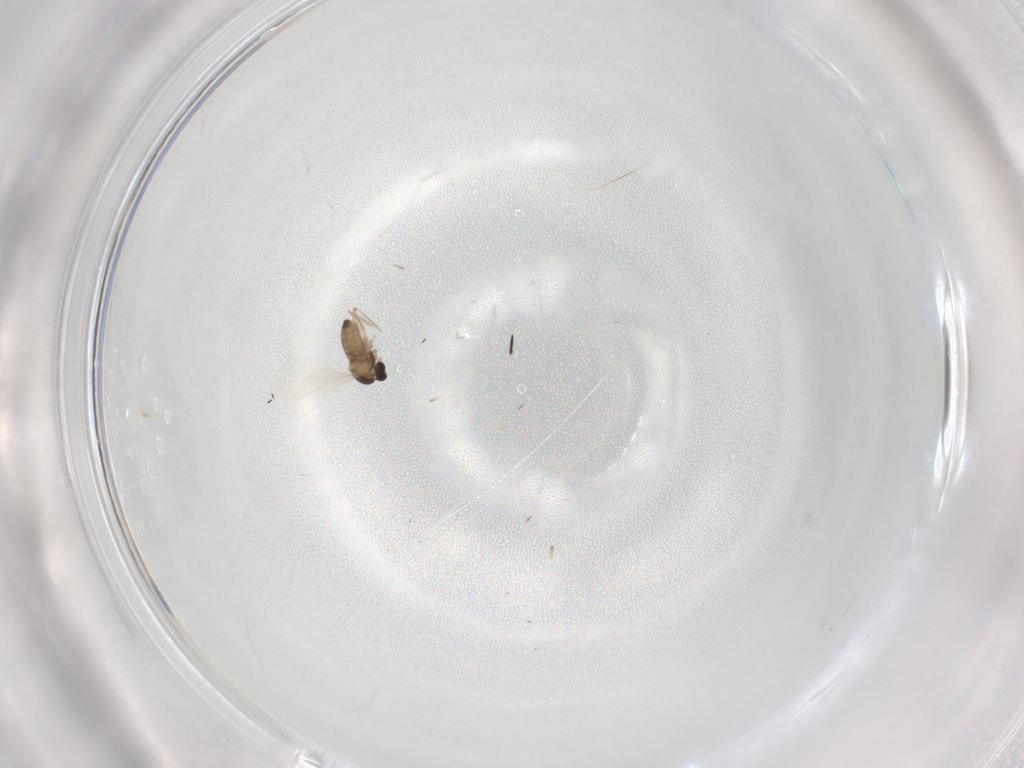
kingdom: Animalia
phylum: Arthropoda
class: Insecta
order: Diptera
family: Cecidomyiidae
